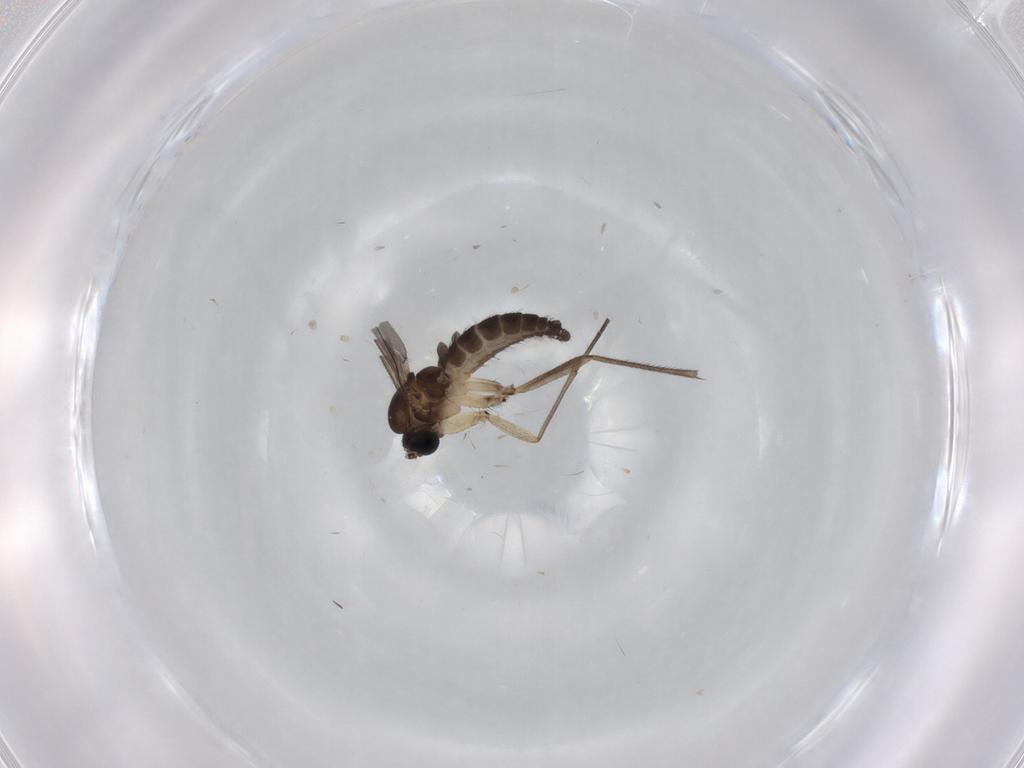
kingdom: Animalia
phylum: Arthropoda
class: Insecta
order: Diptera
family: Sciaridae
